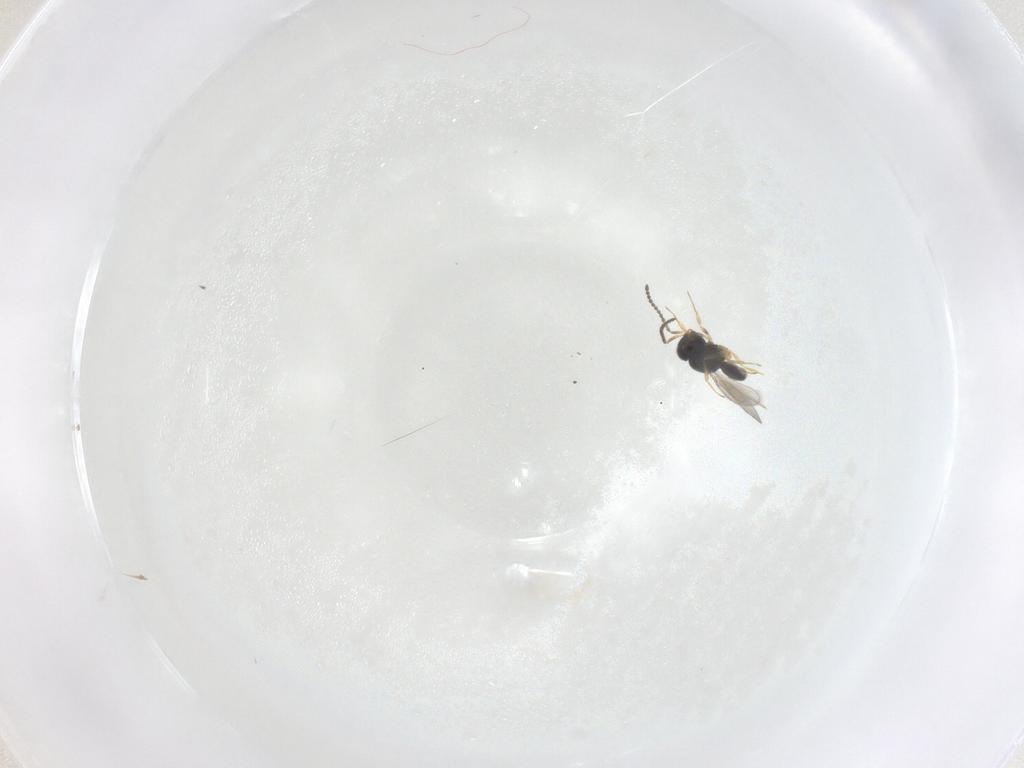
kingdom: Animalia
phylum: Arthropoda
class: Insecta
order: Hymenoptera
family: Scelionidae
